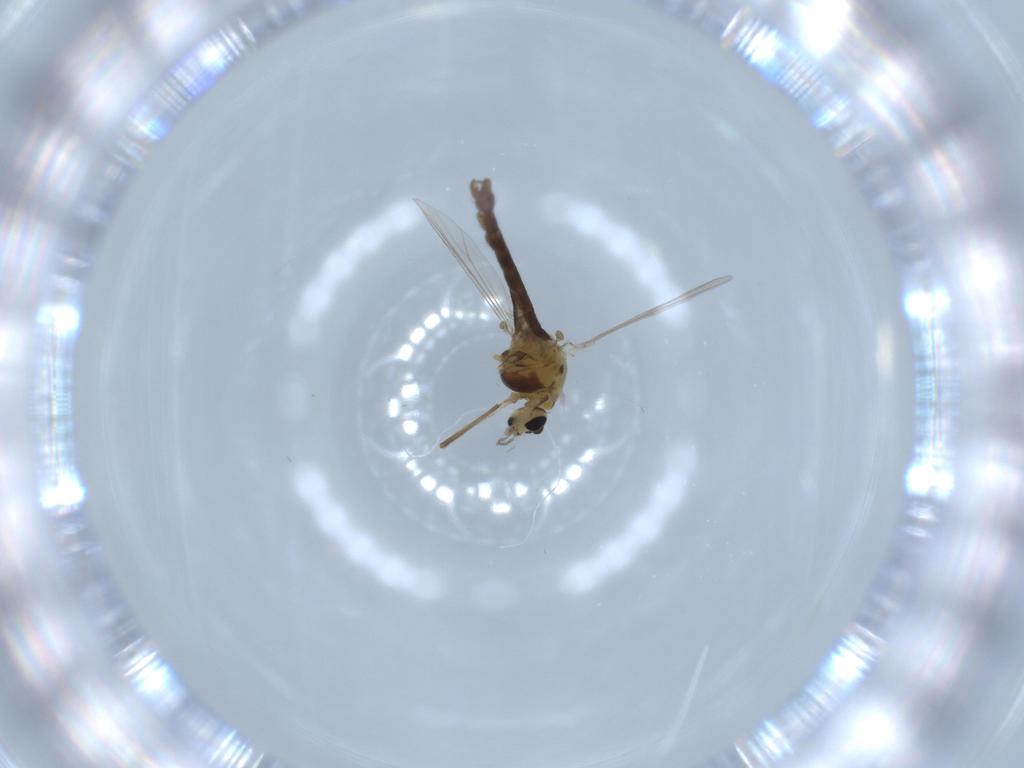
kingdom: Animalia
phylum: Arthropoda
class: Insecta
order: Diptera
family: Chironomidae
